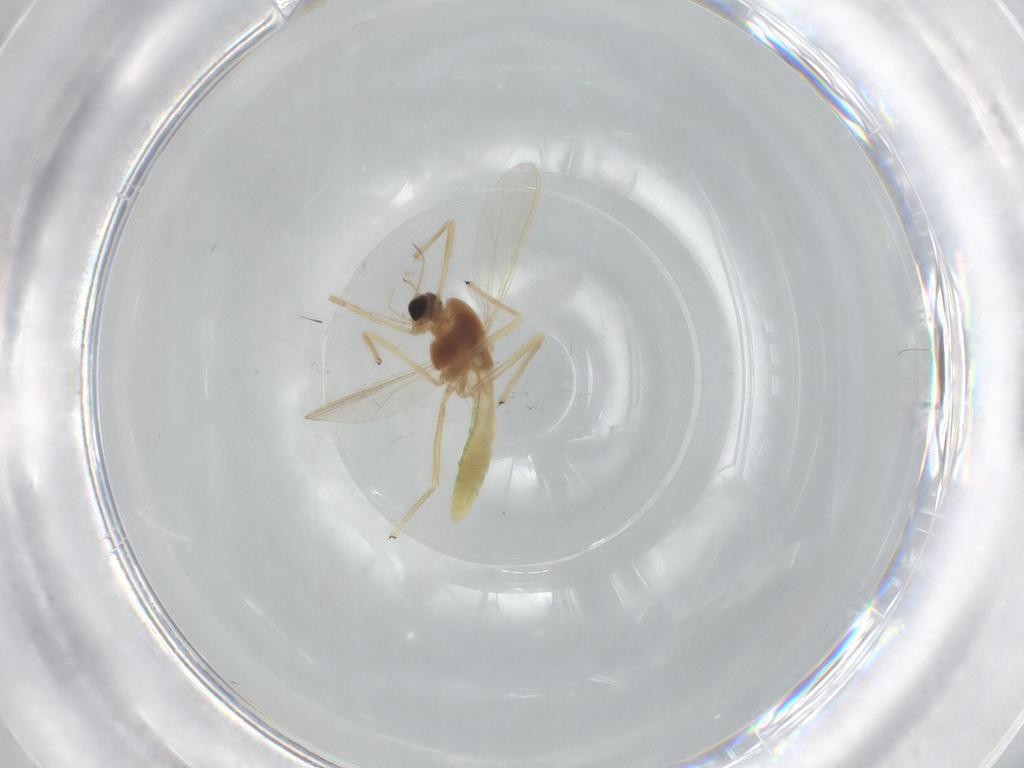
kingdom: Animalia
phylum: Arthropoda
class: Insecta
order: Diptera
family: Chironomidae
